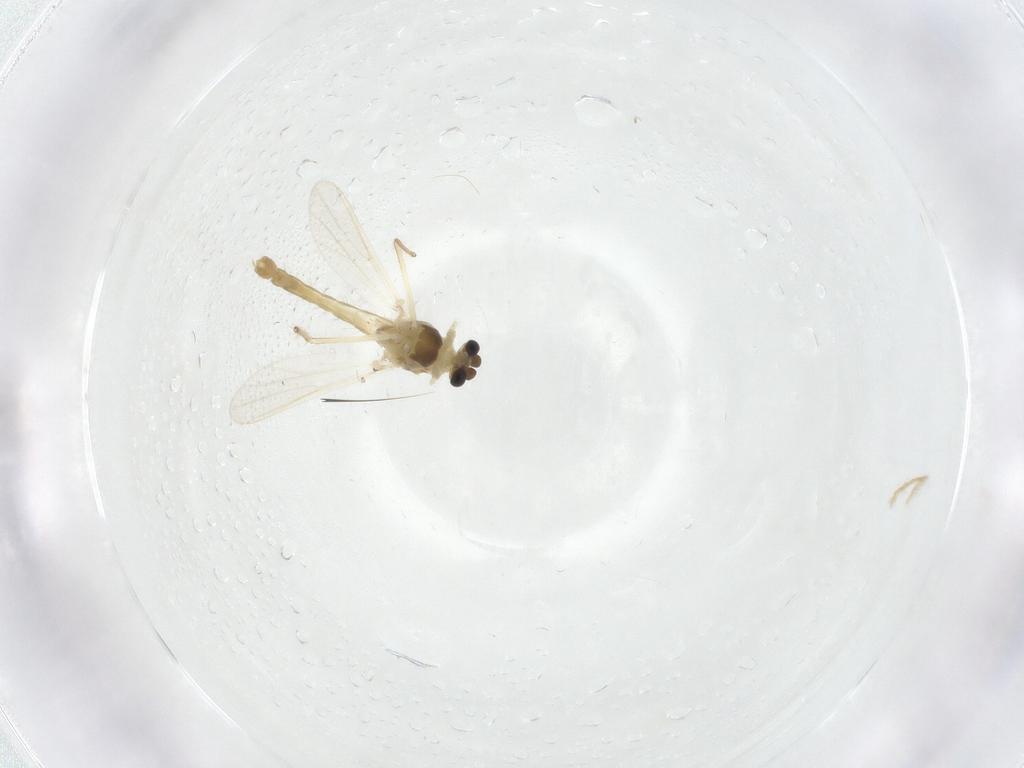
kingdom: Animalia
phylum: Arthropoda
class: Insecta
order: Diptera
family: Chironomidae
